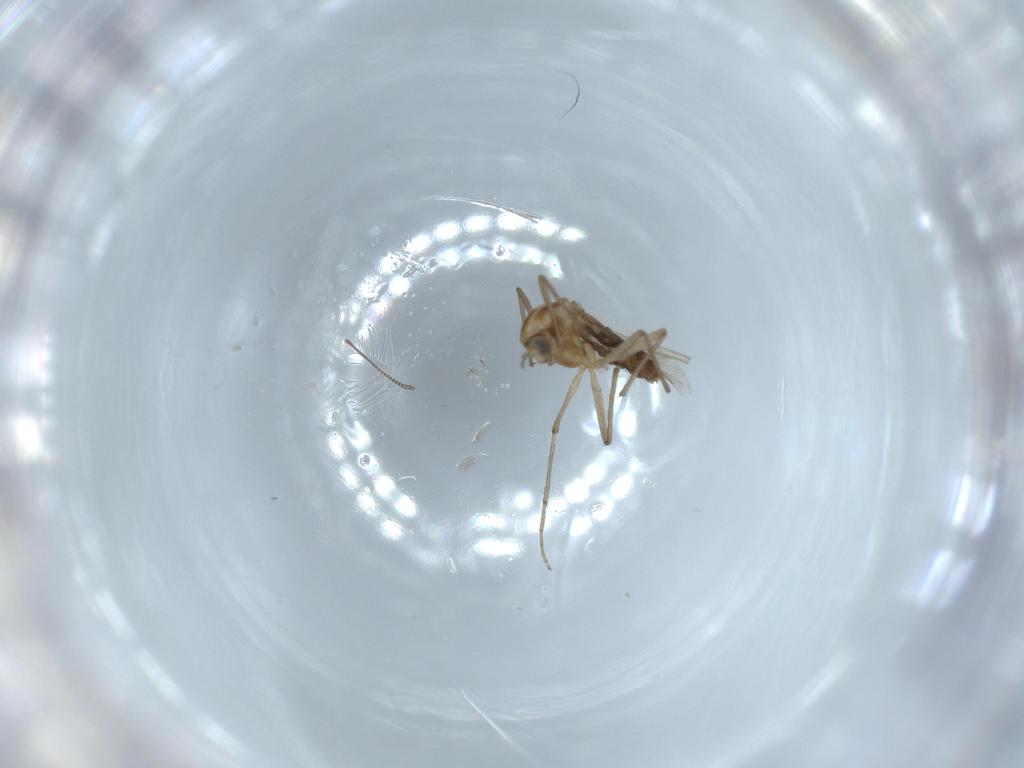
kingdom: Animalia
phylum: Arthropoda
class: Insecta
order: Diptera
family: Chironomidae
